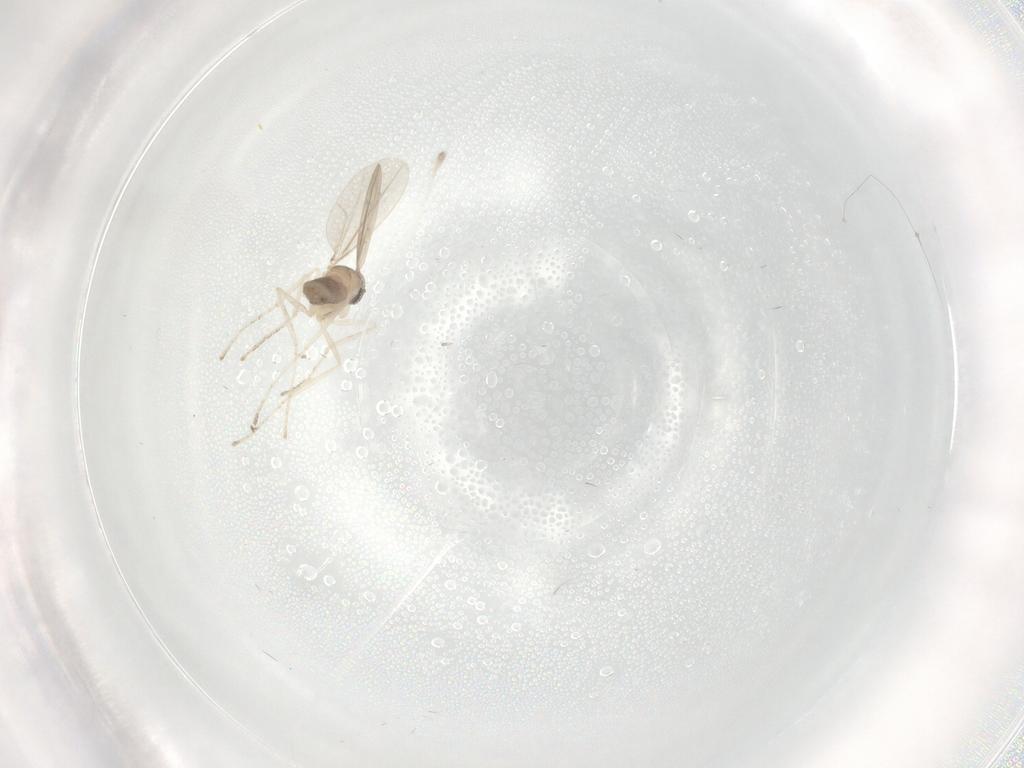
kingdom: Animalia
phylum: Arthropoda
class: Insecta
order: Diptera
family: Cecidomyiidae
